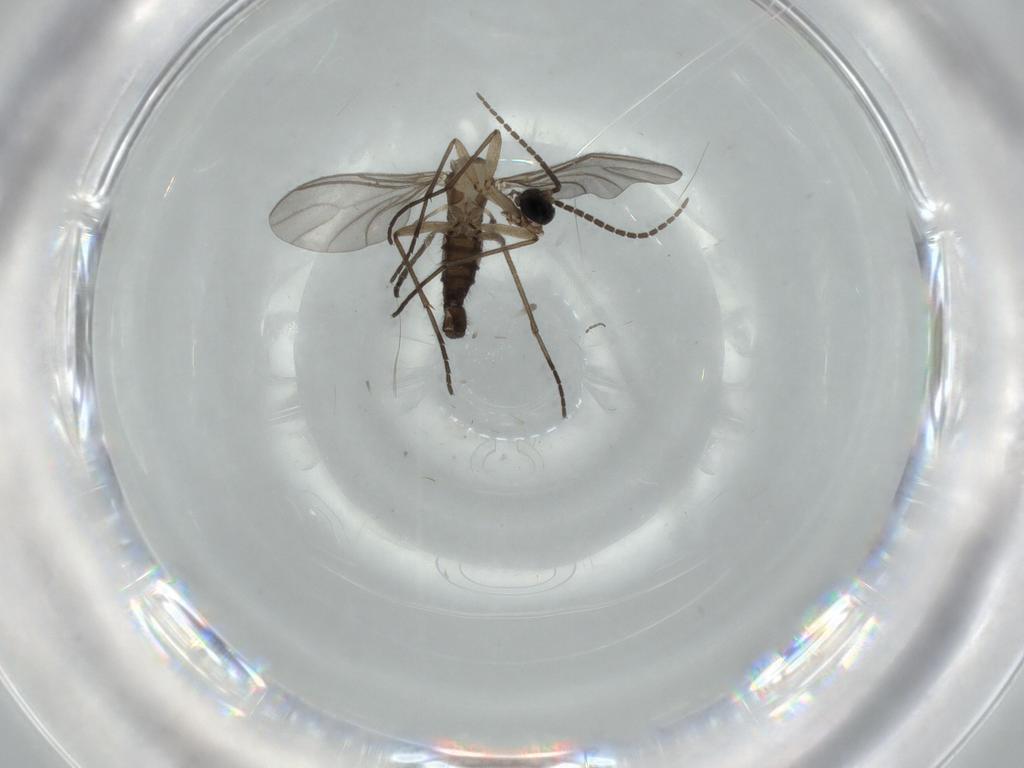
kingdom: Animalia
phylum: Arthropoda
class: Insecta
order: Diptera
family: Sciaridae
